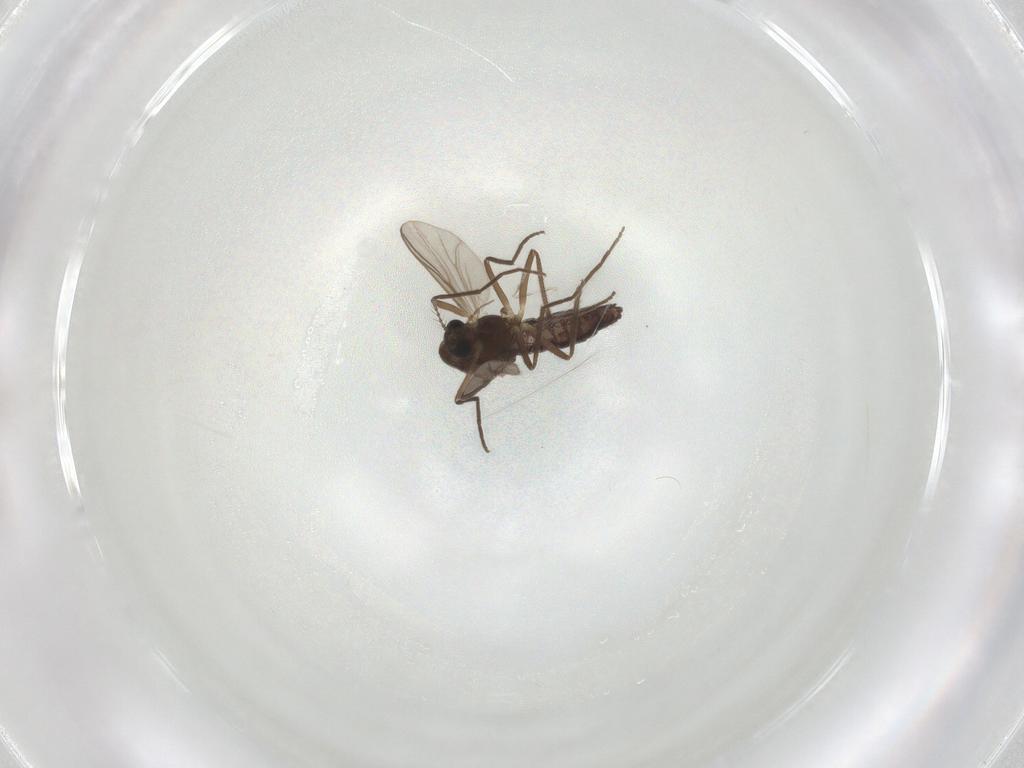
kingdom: Animalia
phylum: Arthropoda
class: Insecta
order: Diptera
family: Chironomidae
